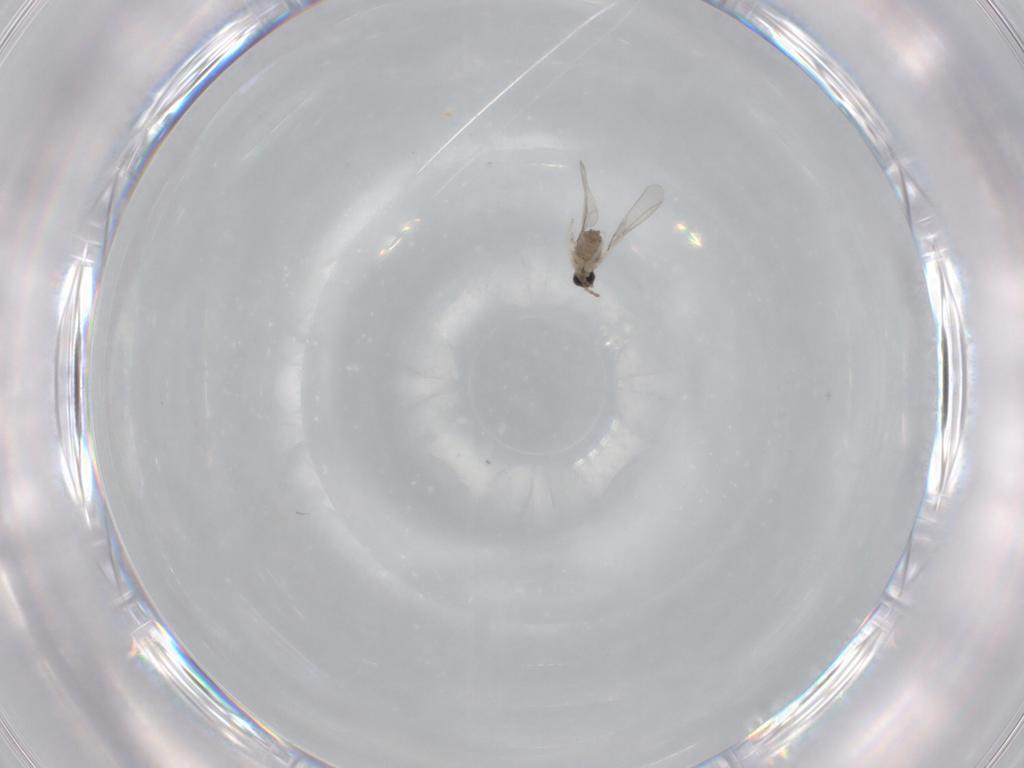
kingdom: Animalia
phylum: Arthropoda
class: Insecta
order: Diptera
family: Cecidomyiidae
